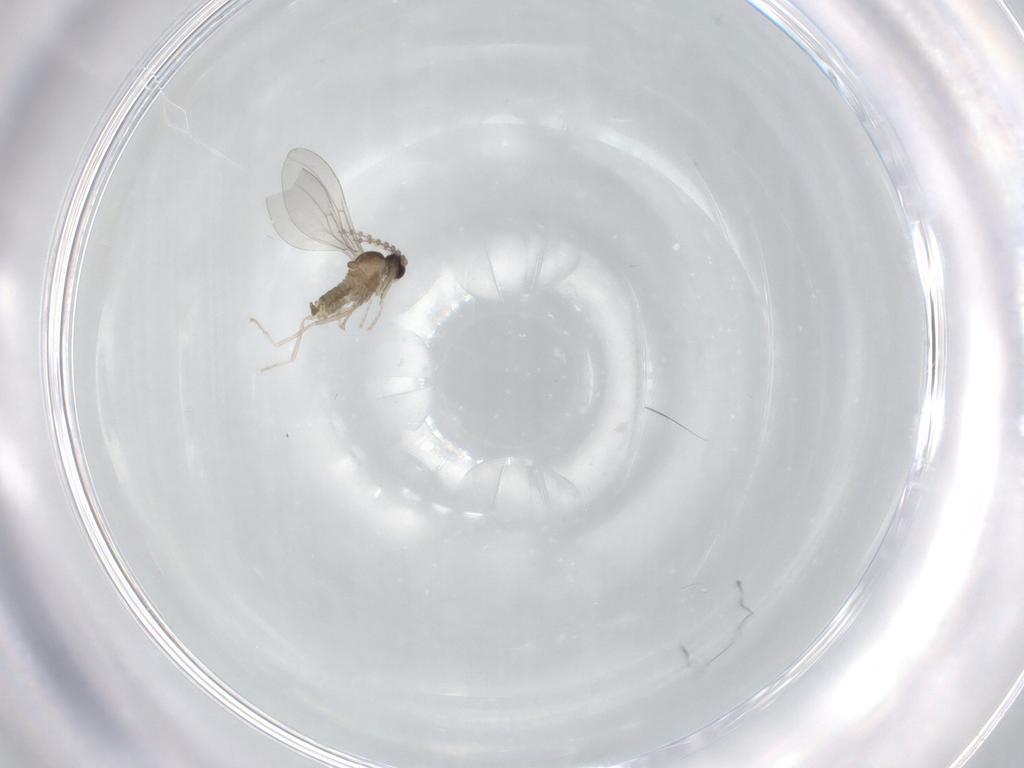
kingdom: Animalia
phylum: Arthropoda
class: Insecta
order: Diptera
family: Cecidomyiidae
